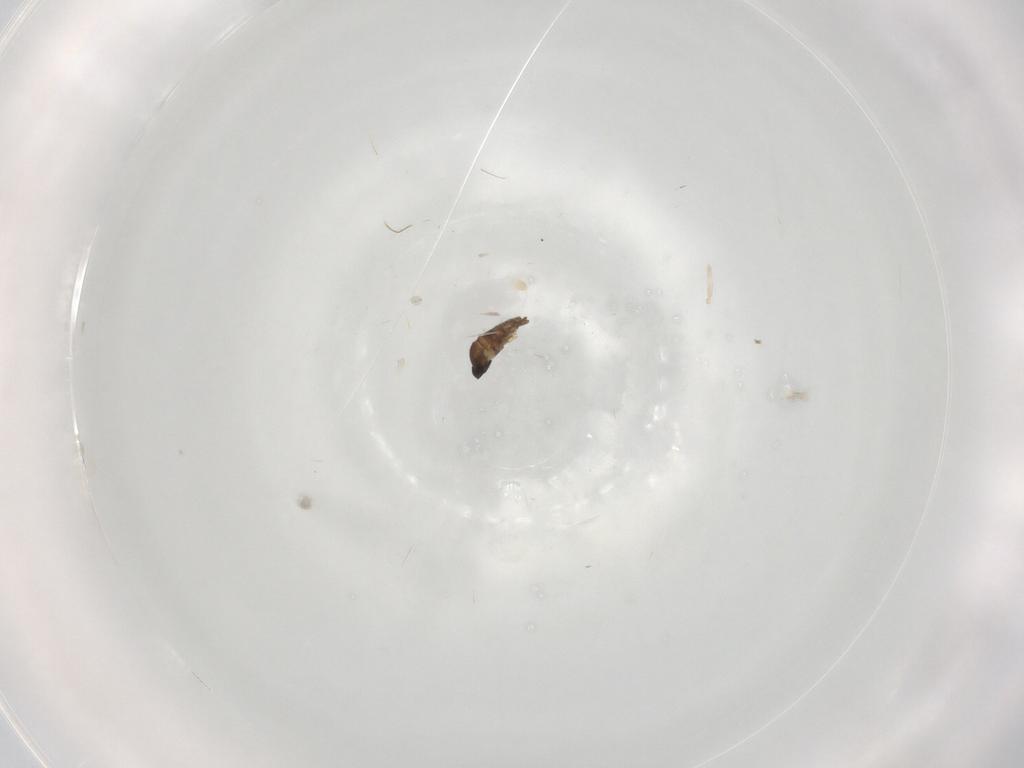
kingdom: Animalia
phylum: Arthropoda
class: Insecta
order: Diptera
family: Cecidomyiidae
